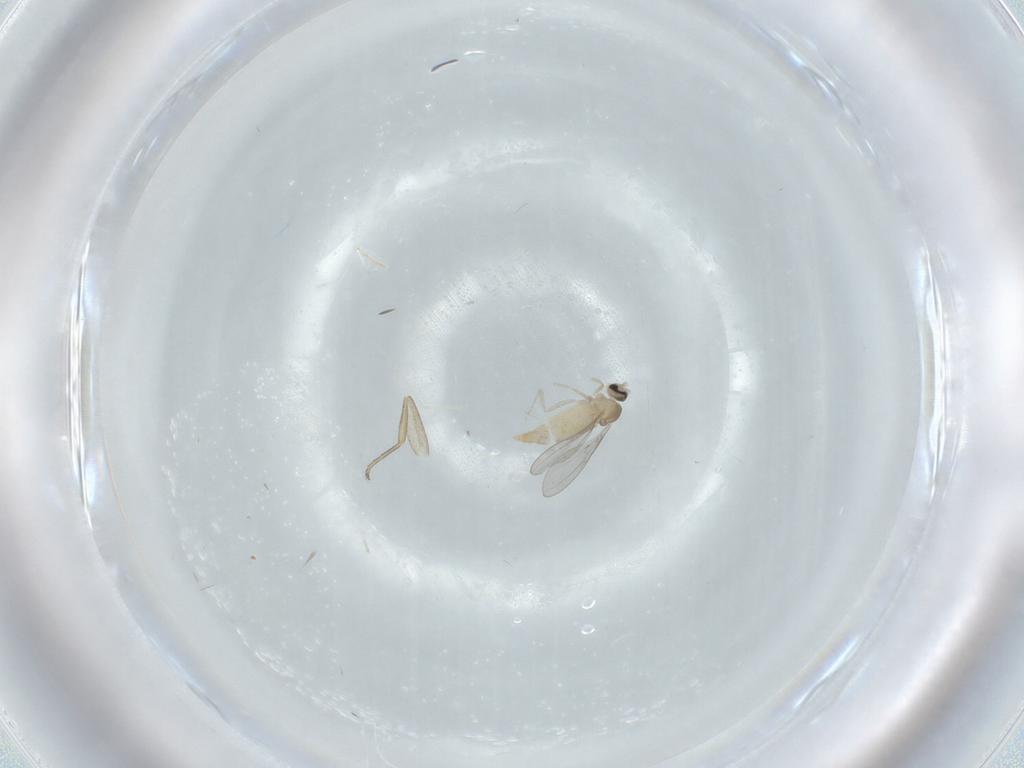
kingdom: Animalia
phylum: Arthropoda
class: Insecta
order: Diptera
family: Cecidomyiidae
